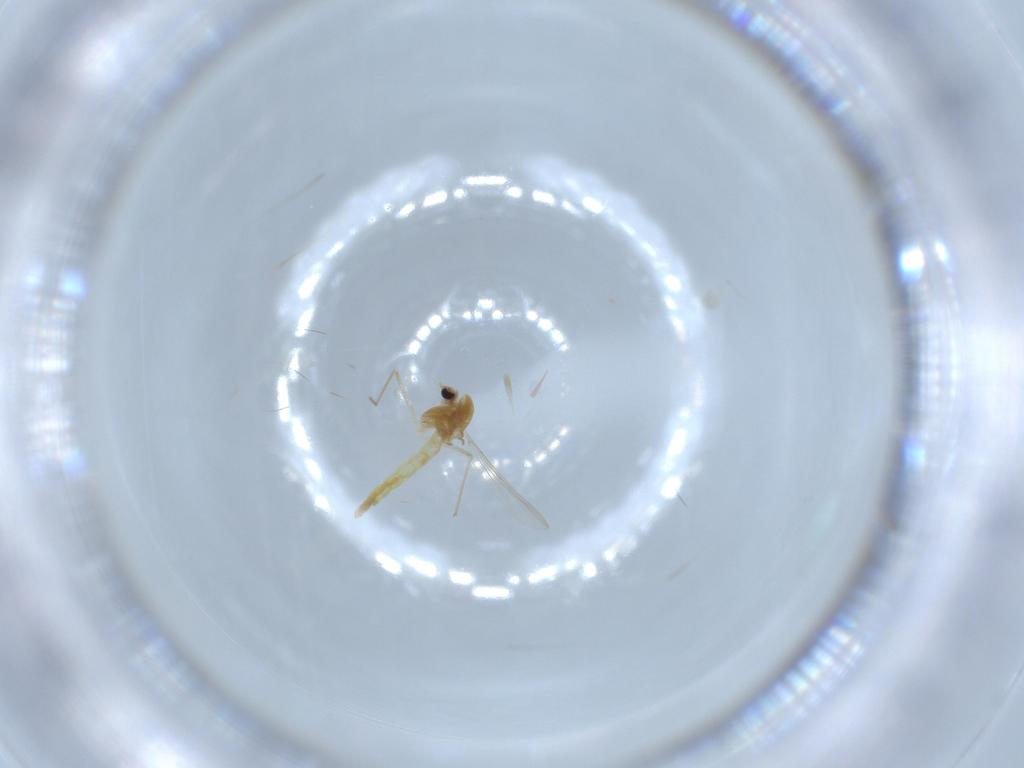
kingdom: Animalia
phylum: Arthropoda
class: Insecta
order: Diptera
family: Chironomidae
